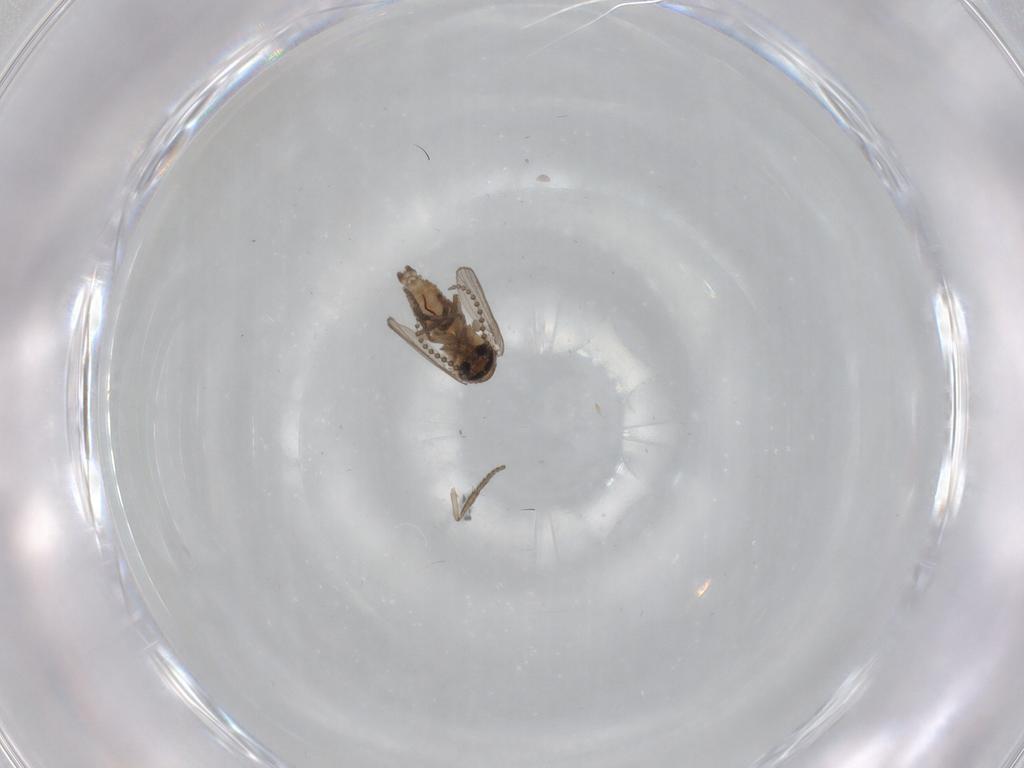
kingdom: Animalia
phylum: Arthropoda
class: Insecta
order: Diptera
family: Psychodidae
